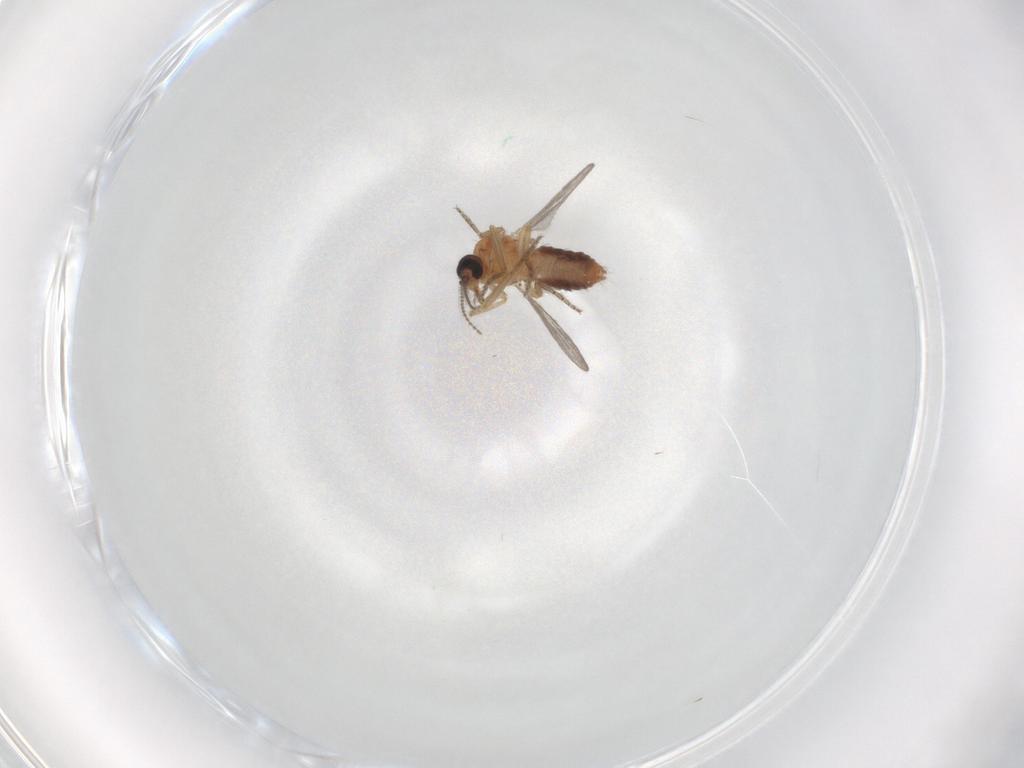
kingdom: Animalia
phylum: Arthropoda
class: Insecta
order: Diptera
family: Ceratopogonidae
